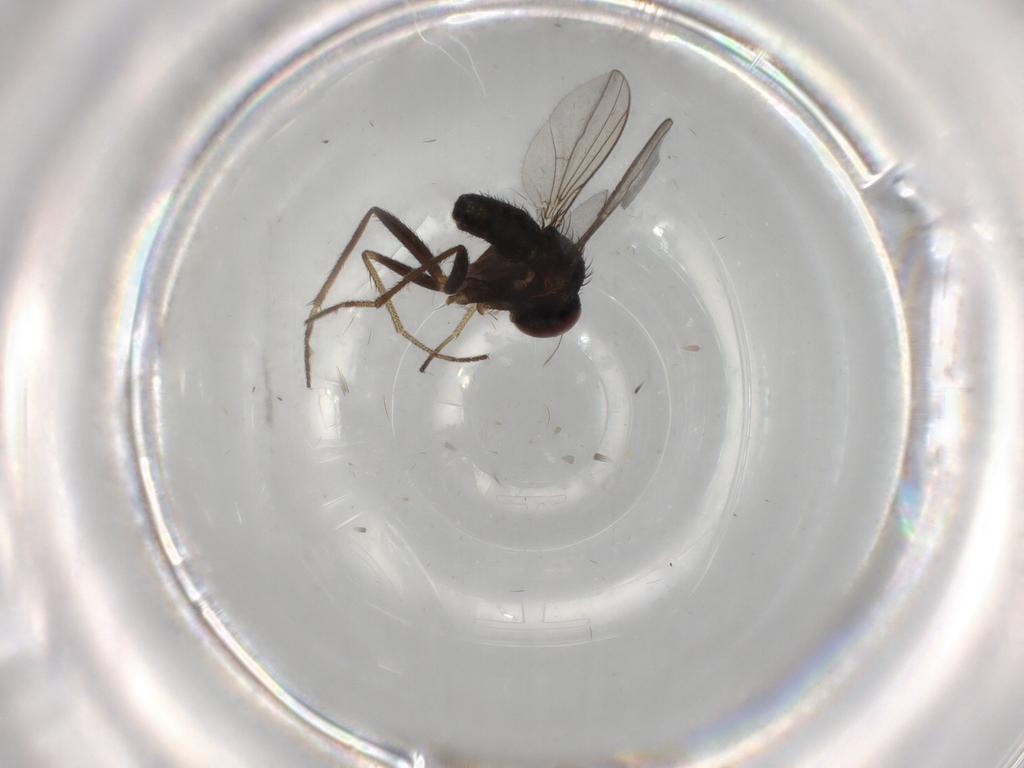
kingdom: Animalia
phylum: Arthropoda
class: Insecta
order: Diptera
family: Dolichopodidae
